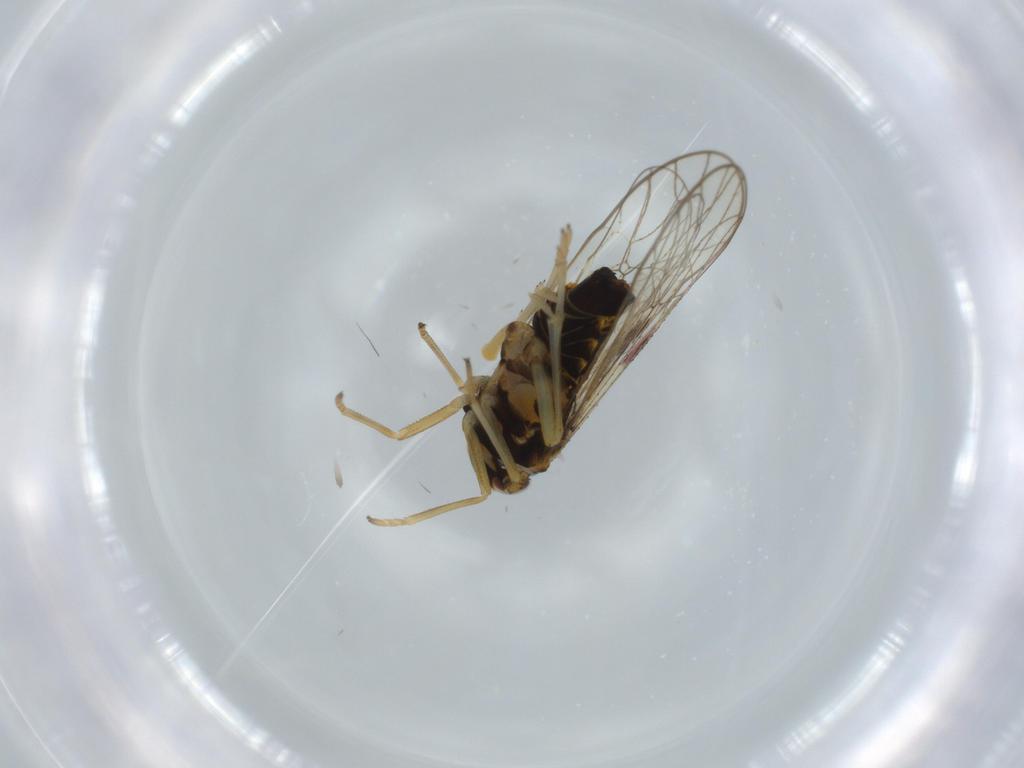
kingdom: Animalia
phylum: Arthropoda
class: Insecta
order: Hemiptera
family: Aleyrodidae
